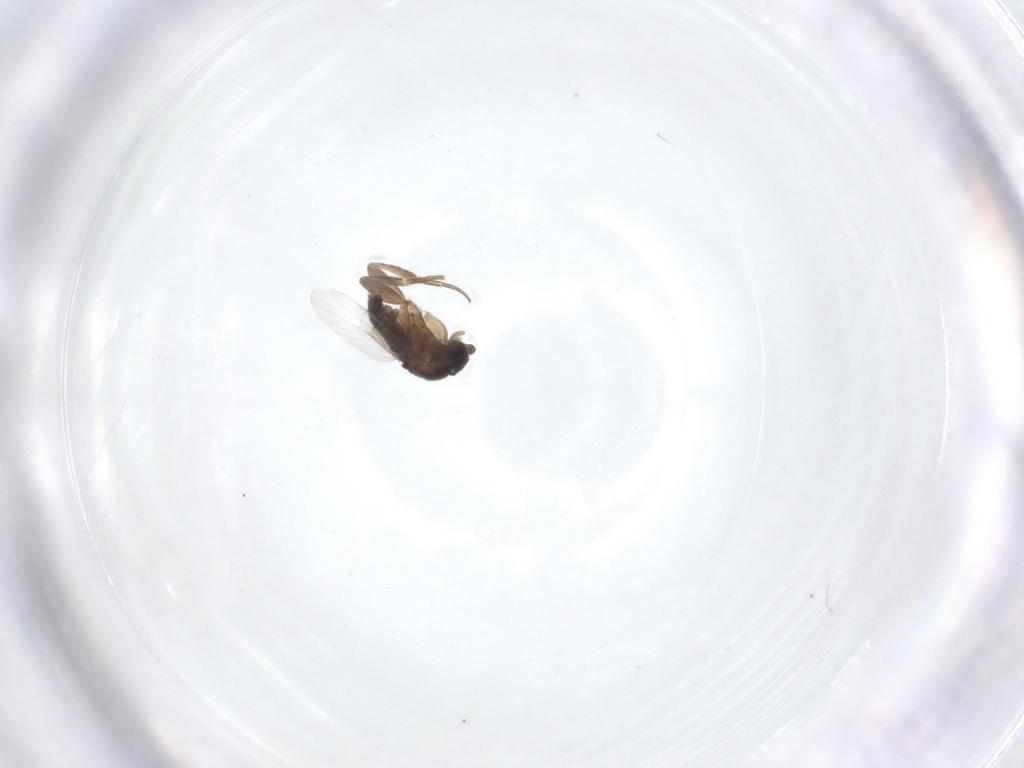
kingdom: Animalia
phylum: Arthropoda
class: Insecta
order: Diptera
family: Phoridae
